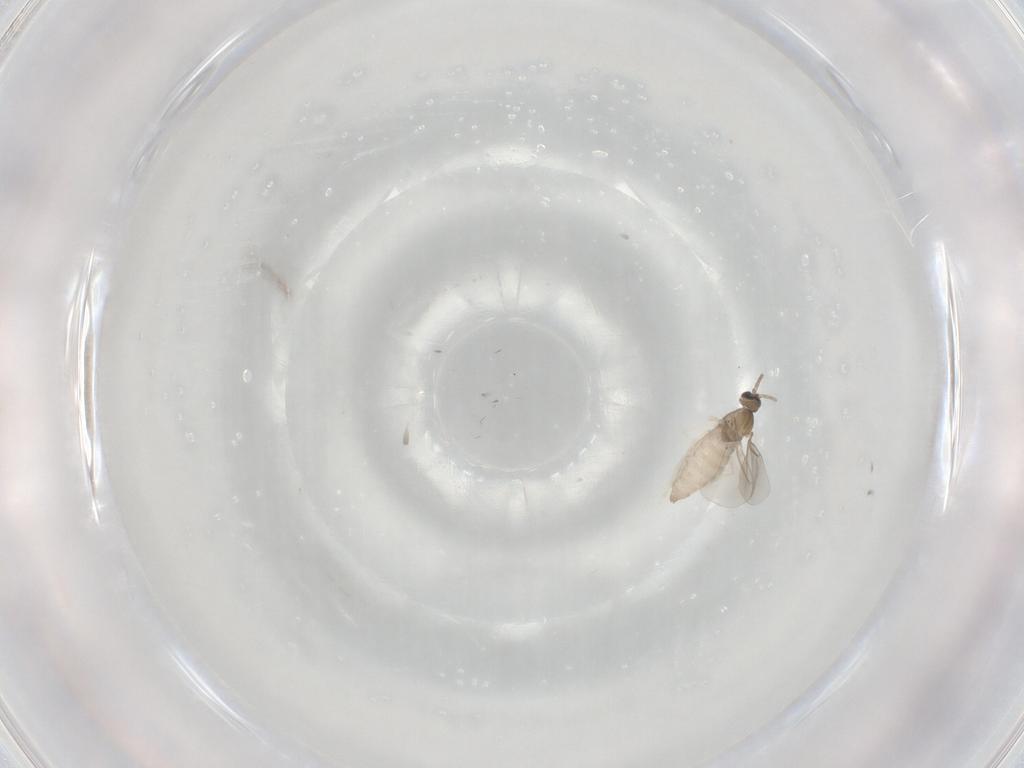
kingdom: Animalia
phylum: Arthropoda
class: Insecta
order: Diptera
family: Cecidomyiidae
